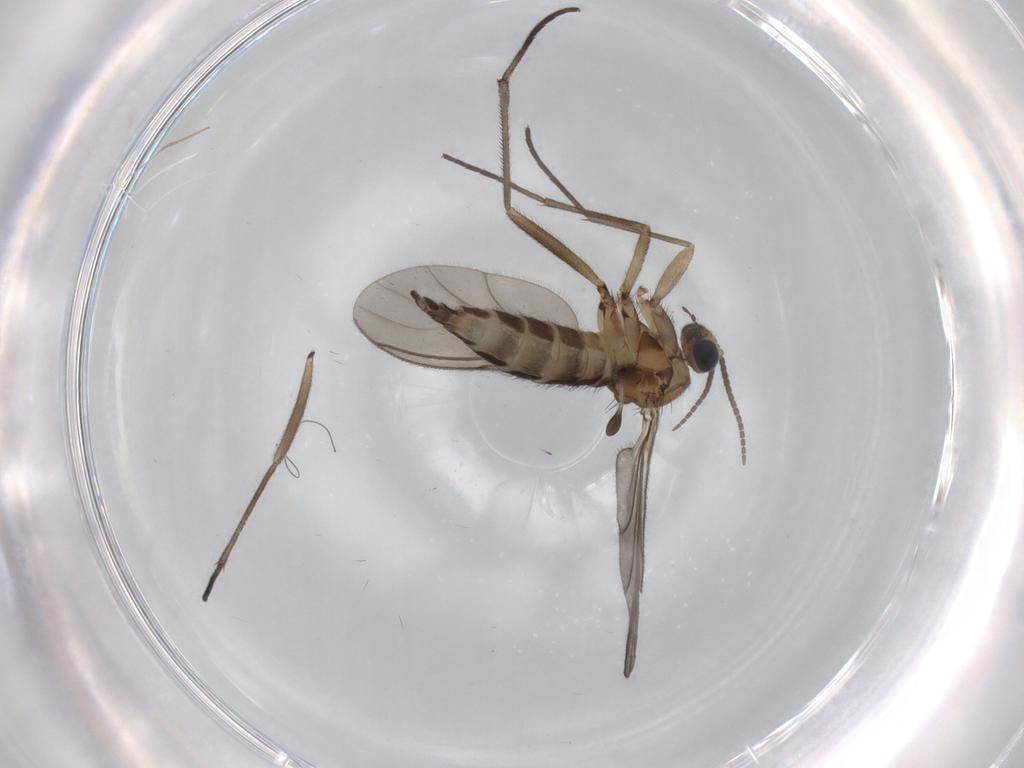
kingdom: Animalia
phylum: Arthropoda
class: Insecta
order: Diptera
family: Sciaridae
